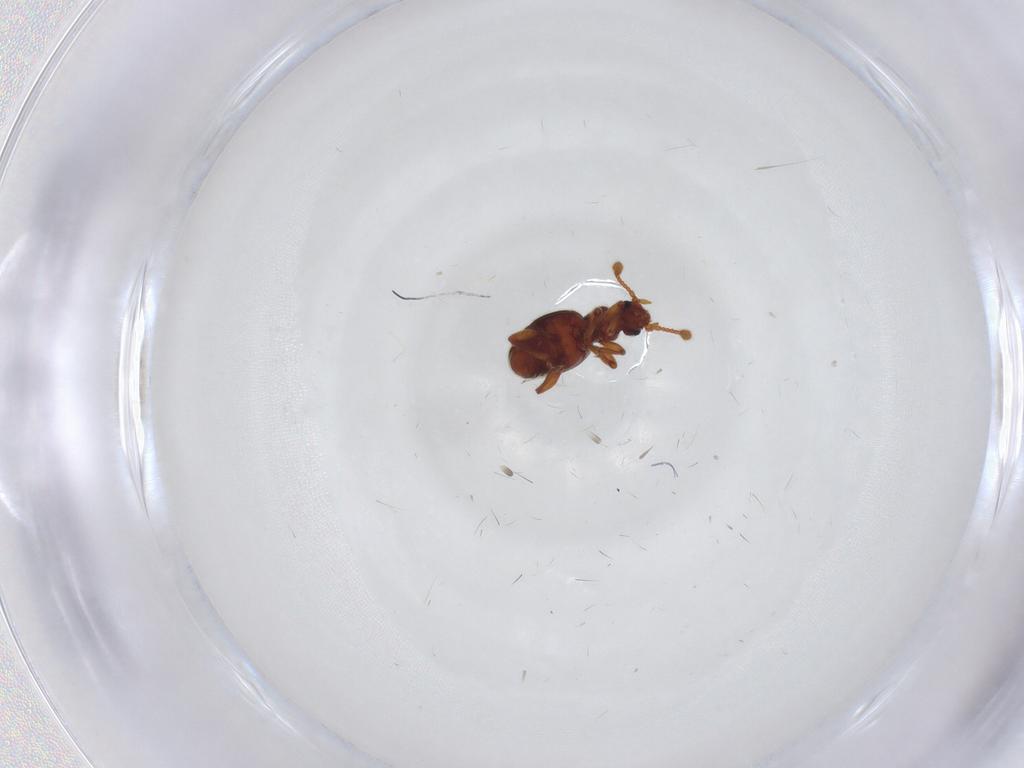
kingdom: Animalia
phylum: Arthropoda
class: Insecta
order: Coleoptera
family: Staphylinidae
